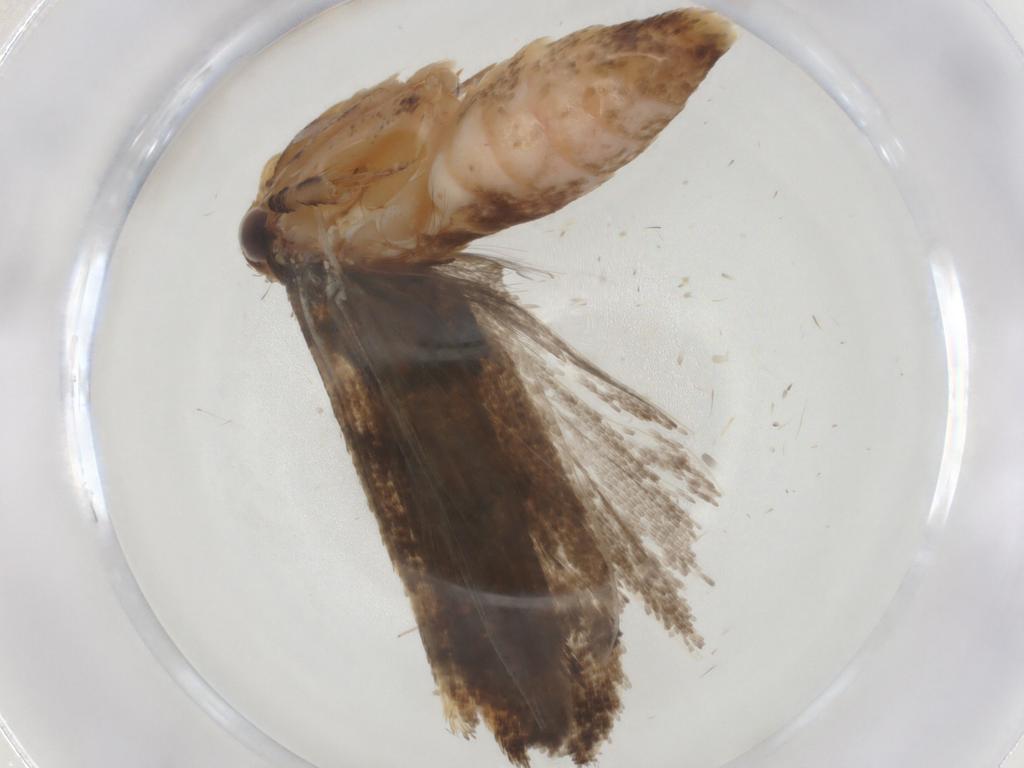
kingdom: Animalia
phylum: Arthropoda
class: Insecta
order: Lepidoptera
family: Gelechiidae
